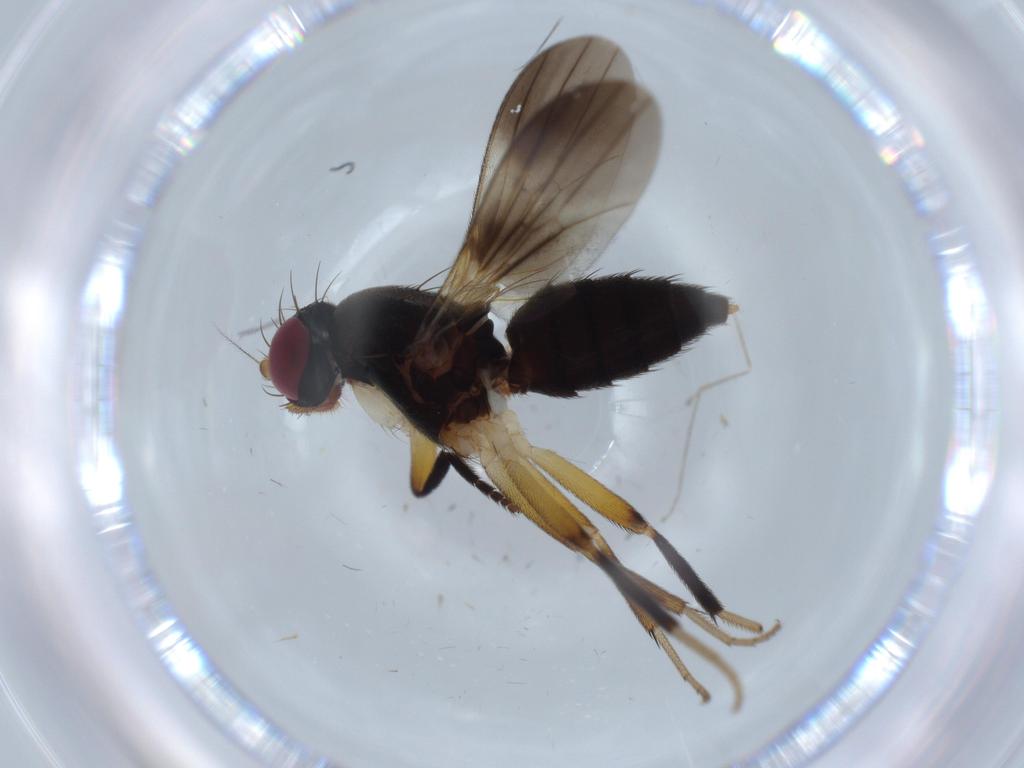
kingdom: Animalia
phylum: Arthropoda
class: Insecta
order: Diptera
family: Clusiidae
